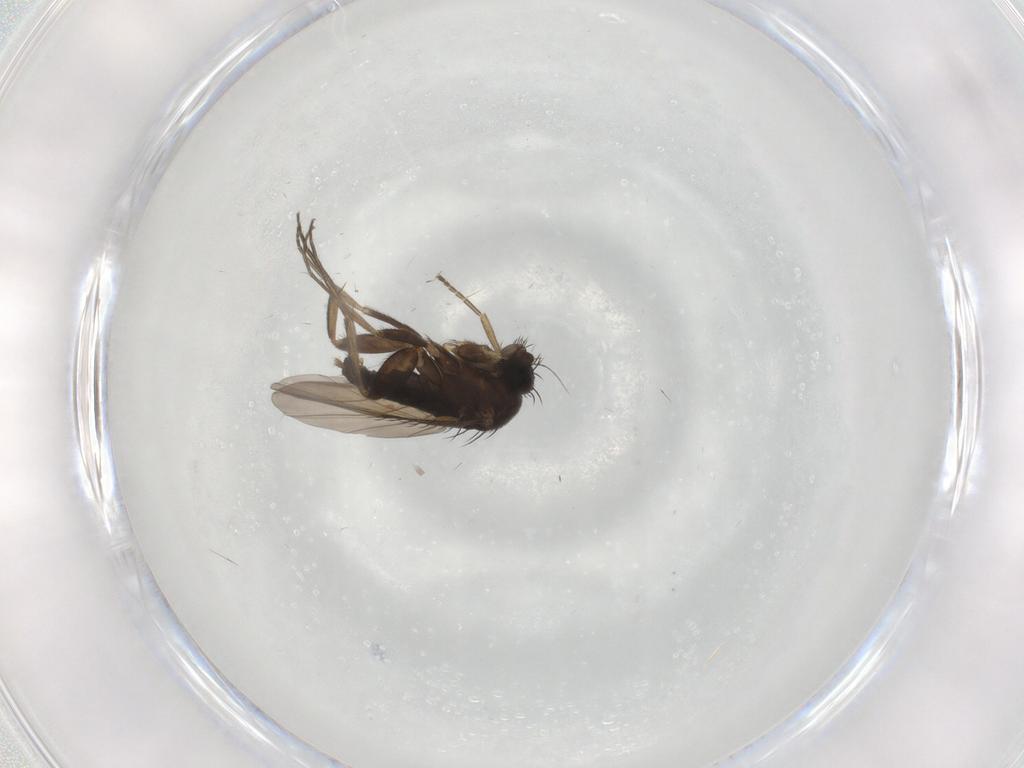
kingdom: Animalia
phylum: Arthropoda
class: Insecta
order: Diptera
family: Phoridae
